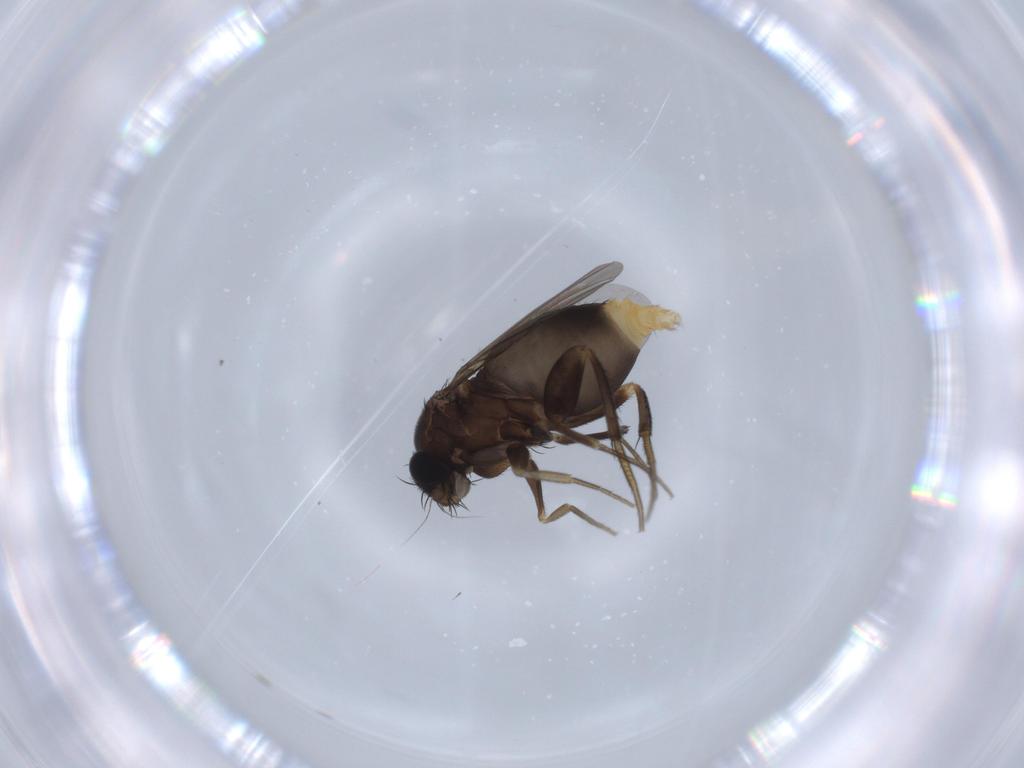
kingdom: Animalia
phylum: Arthropoda
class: Insecta
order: Diptera
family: Phoridae
